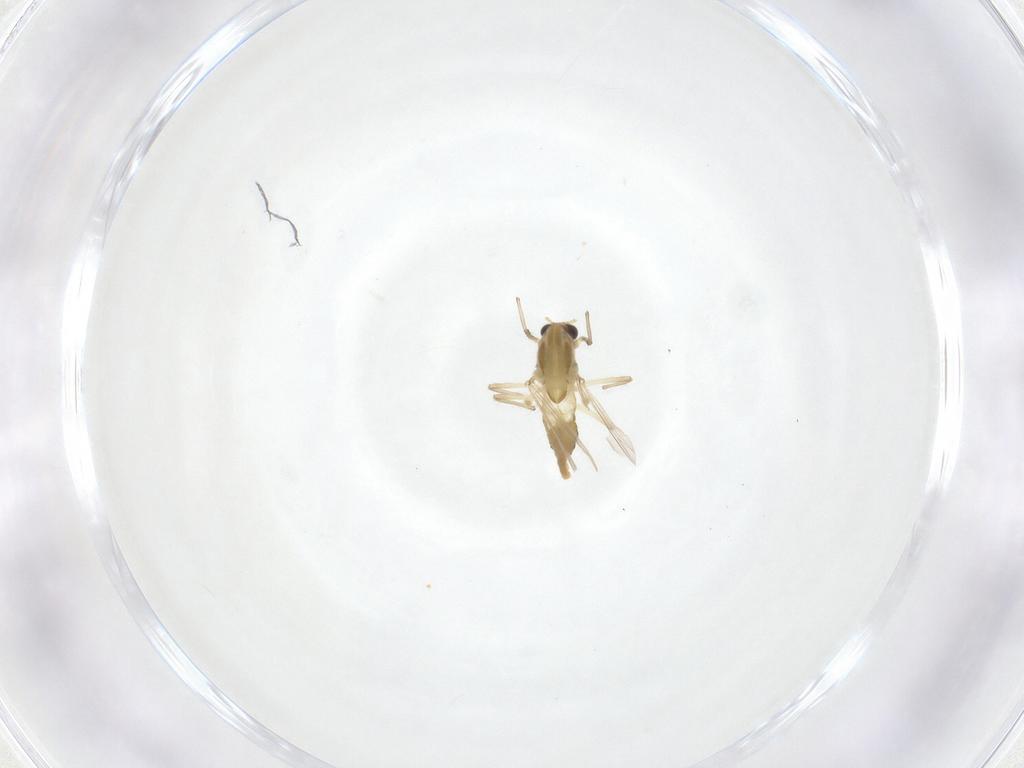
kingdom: Animalia
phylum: Arthropoda
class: Insecta
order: Diptera
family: Chironomidae
